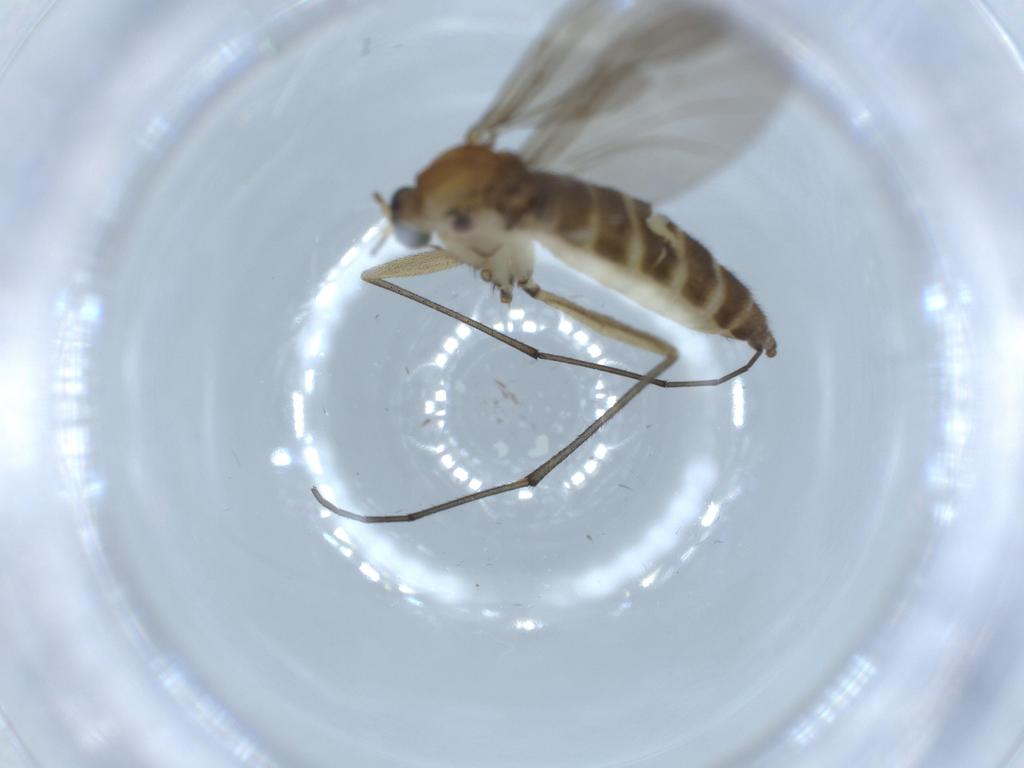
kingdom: Animalia
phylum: Arthropoda
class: Insecta
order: Diptera
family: Sciaridae
